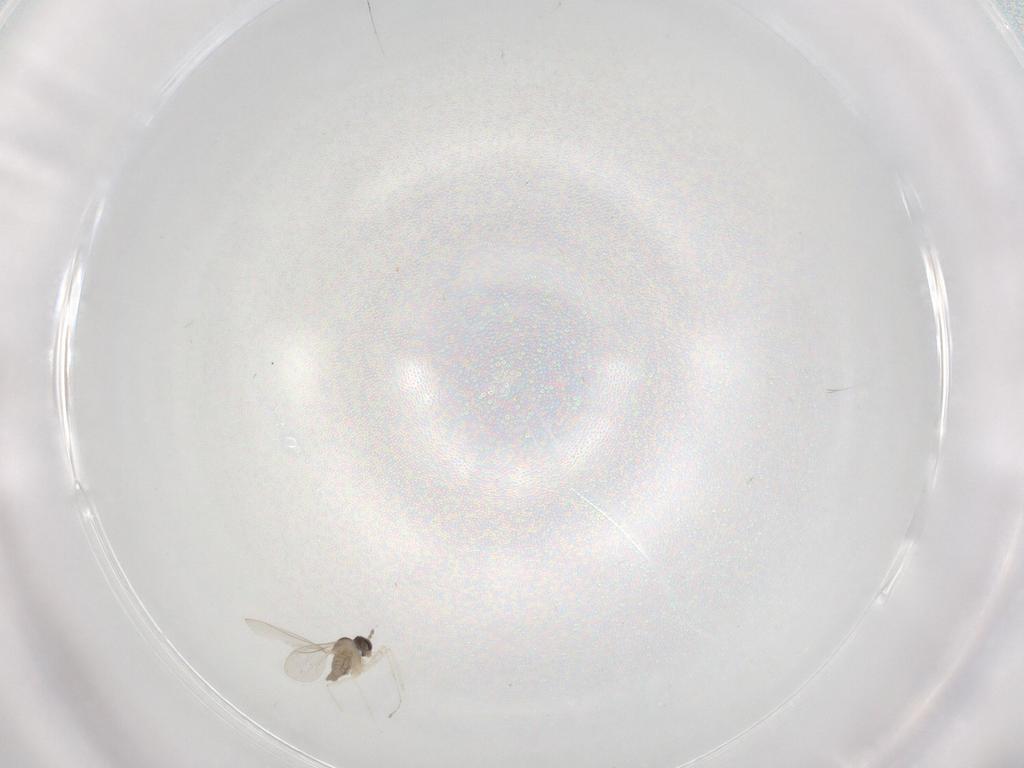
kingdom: Animalia
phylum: Arthropoda
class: Insecta
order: Diptera
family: Cecidomyiidae
